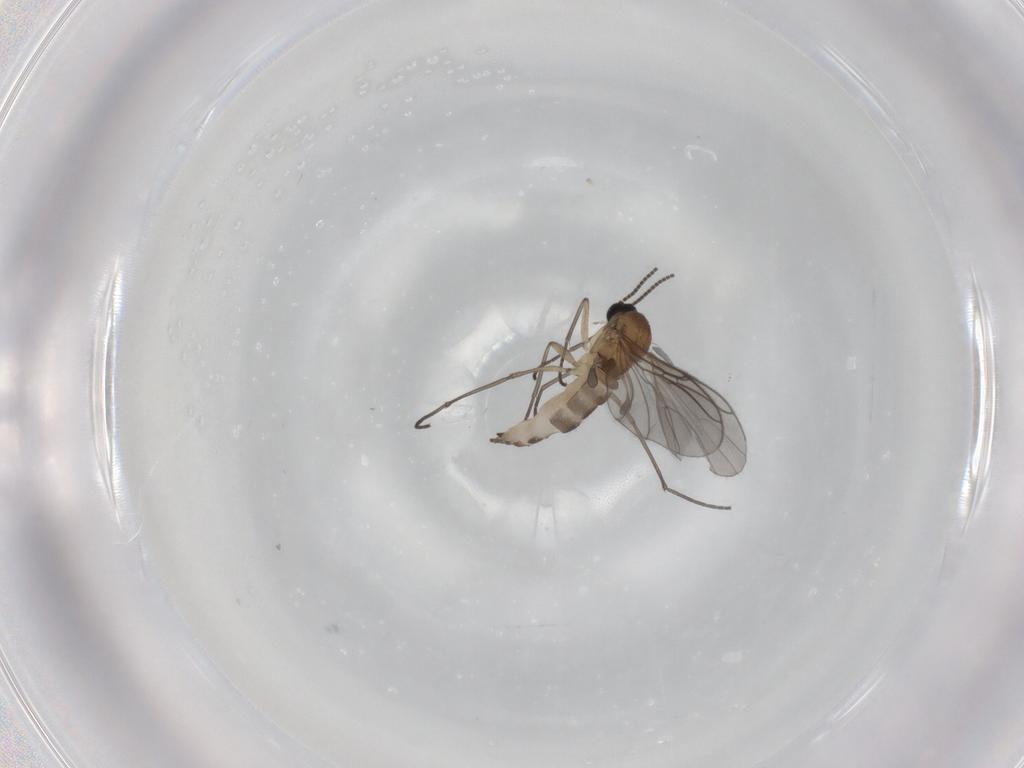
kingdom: Animalia
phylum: Arthropoda
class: Insecta
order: Diptera
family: Sciaridae
